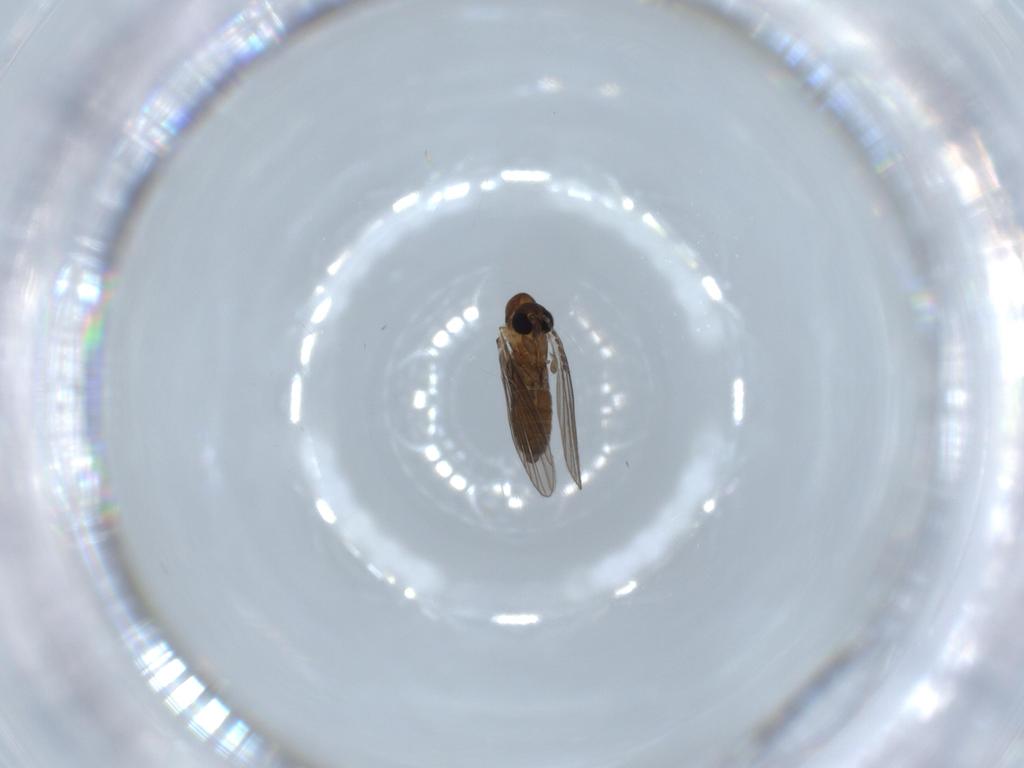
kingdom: Animalia
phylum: Arthropoda
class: Insecta
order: Diptera
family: Psychodidae
